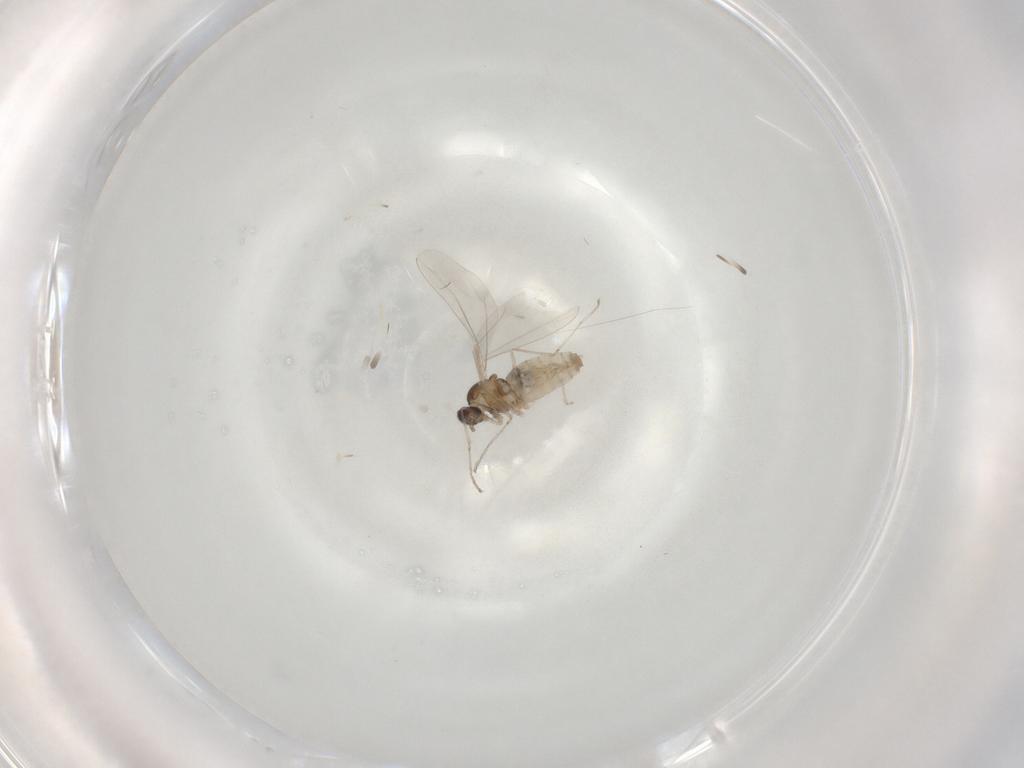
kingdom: Animalia
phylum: Arthropoda
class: Insecta
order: Diptera
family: Cecidomyiidae
